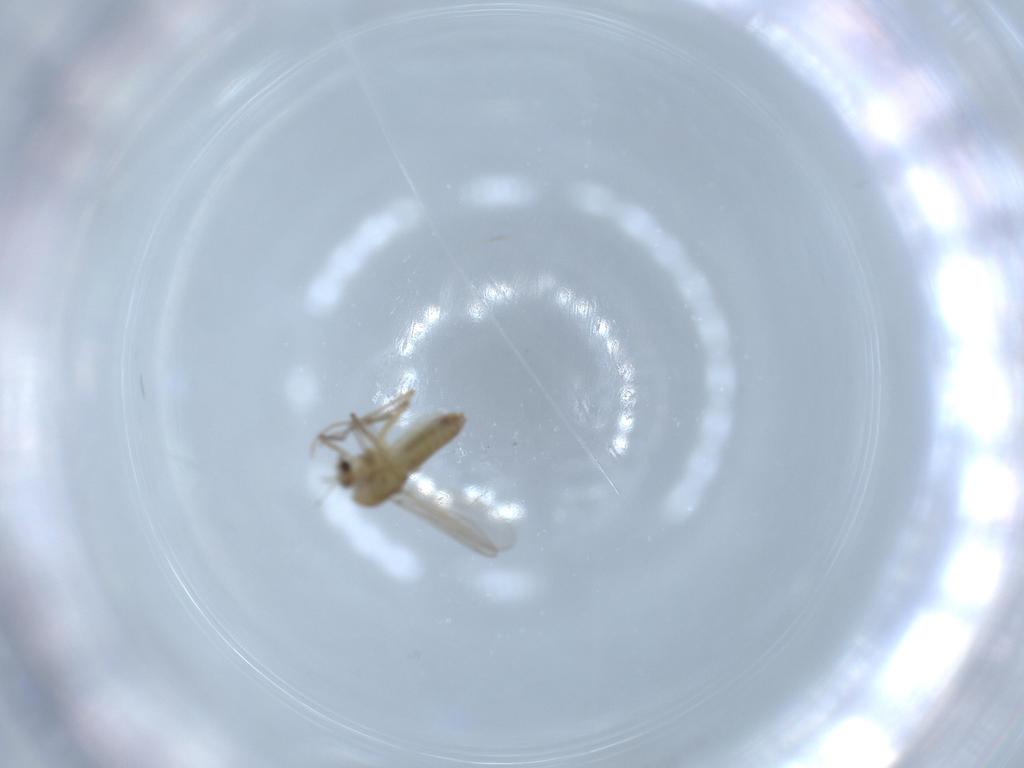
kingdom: Animalia
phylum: Arthropoda
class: Insecta
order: Diptera
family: Chironomidae
